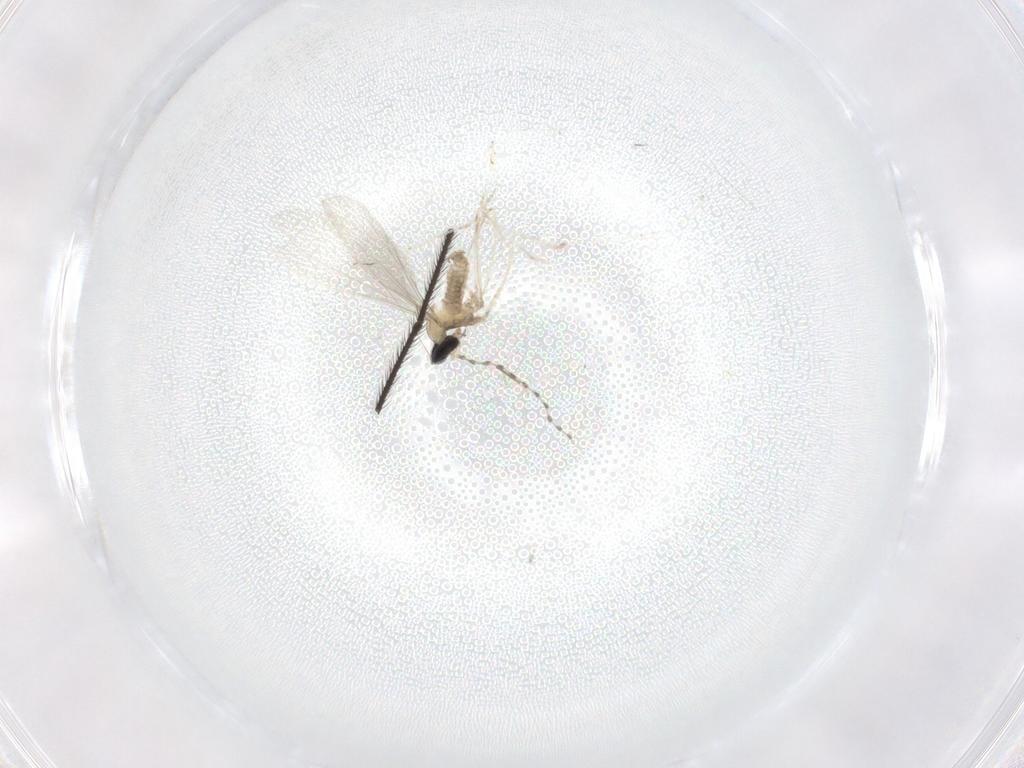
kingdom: Animalia
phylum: Arthropoda
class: Insecta
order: Diptera
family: Limoniidae
